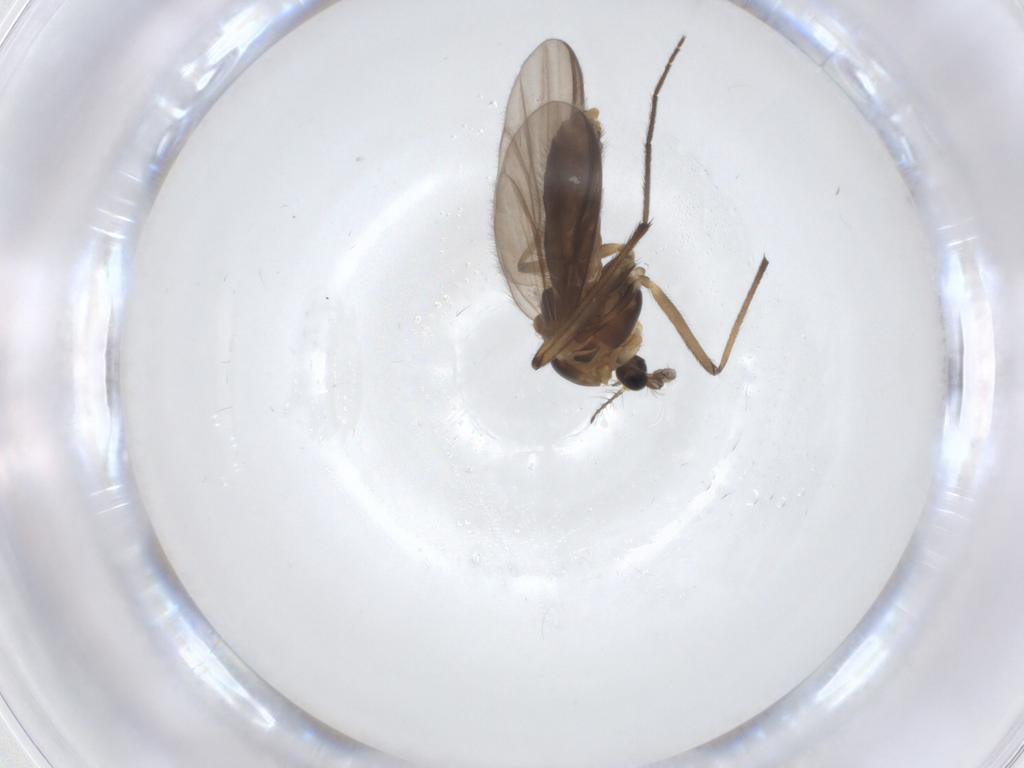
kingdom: Animalia
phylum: Arthropoda
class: Insecta
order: Diptera
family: Chironomidae
